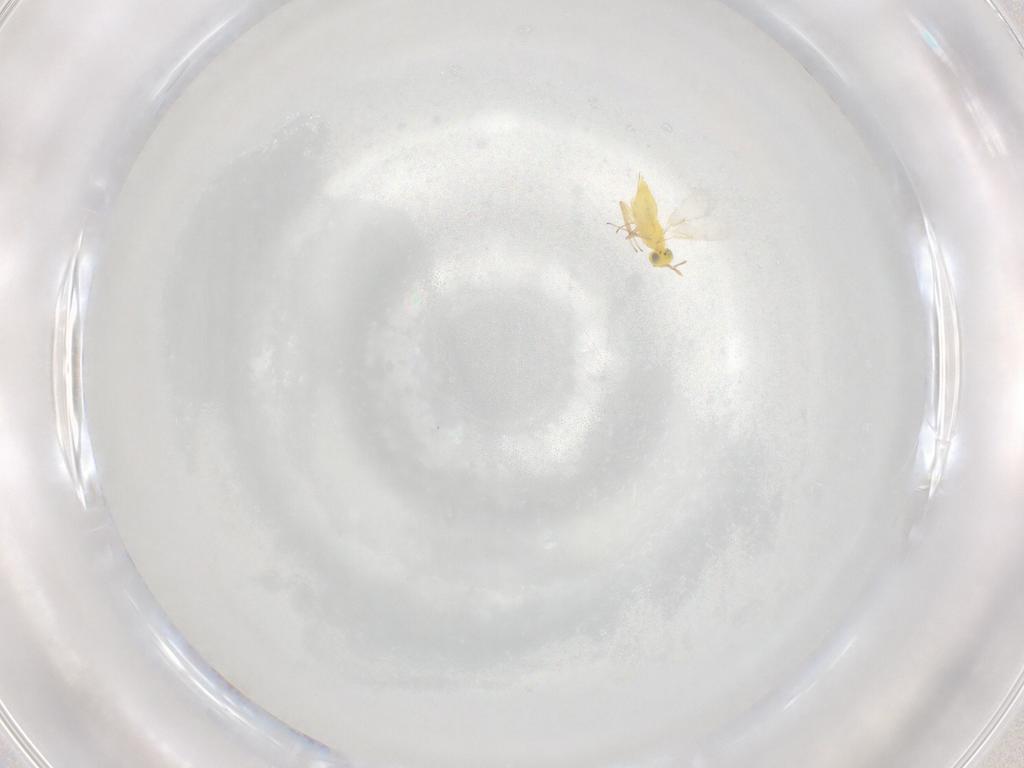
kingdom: Animalia
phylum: Arthropoda
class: Insecta
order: Hymenoptera
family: Aphelinidae
